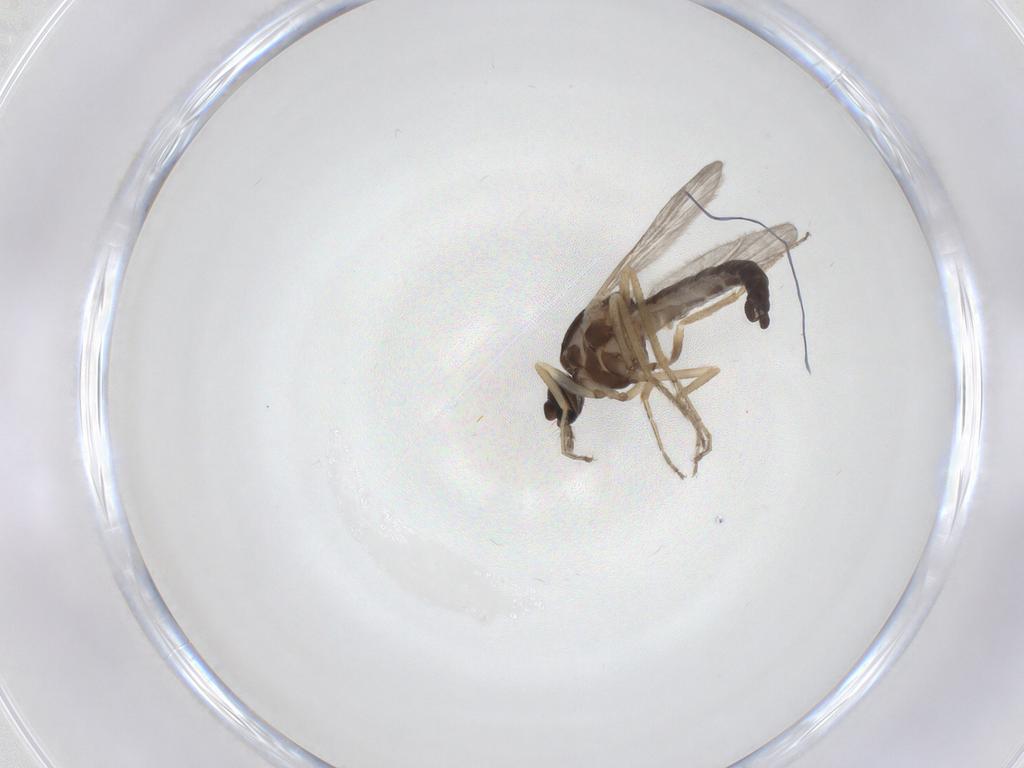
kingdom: Animalia
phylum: Arthropoda
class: Insecta
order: Diptera
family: Ceratopogonidae
